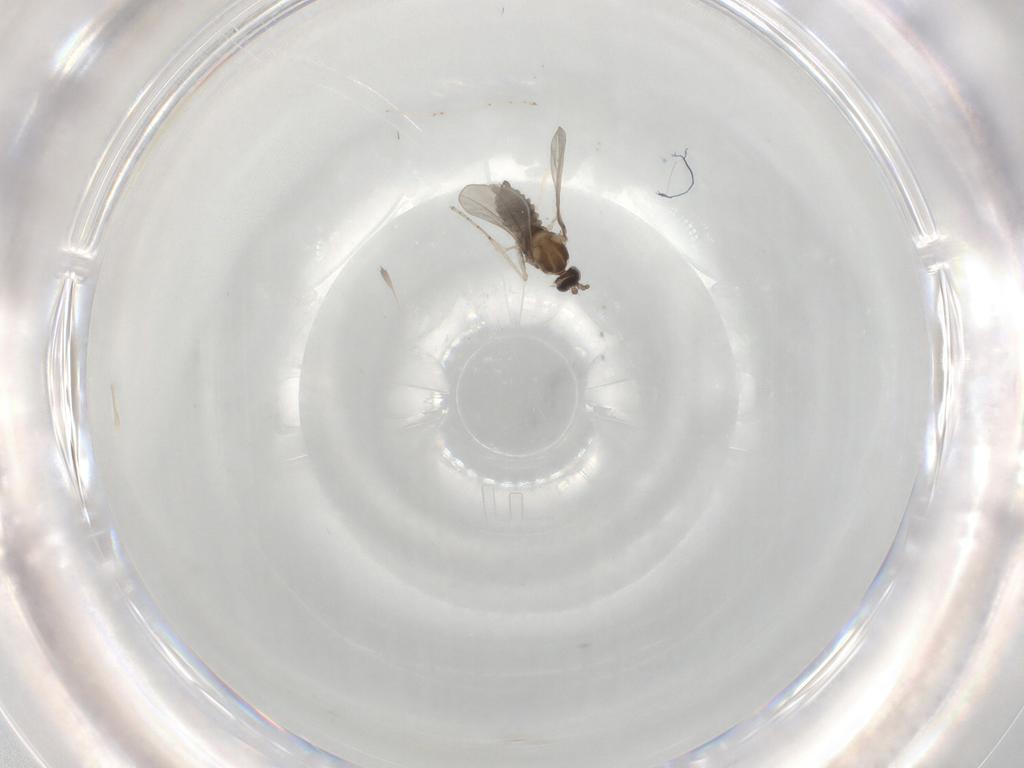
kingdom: Animalia
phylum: Arthropoda
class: Insecta
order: Diptera
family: Cecidomyiidae
